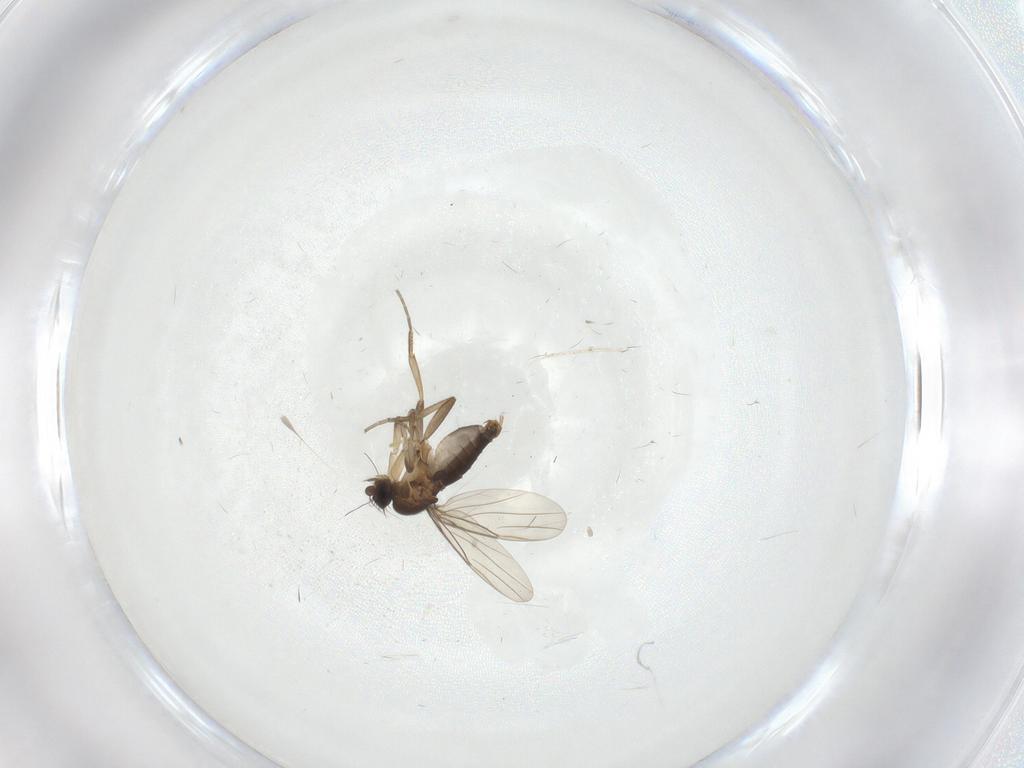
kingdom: Animalia
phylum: Arthropoda
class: Insecta
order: Diptera
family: Phoridae
